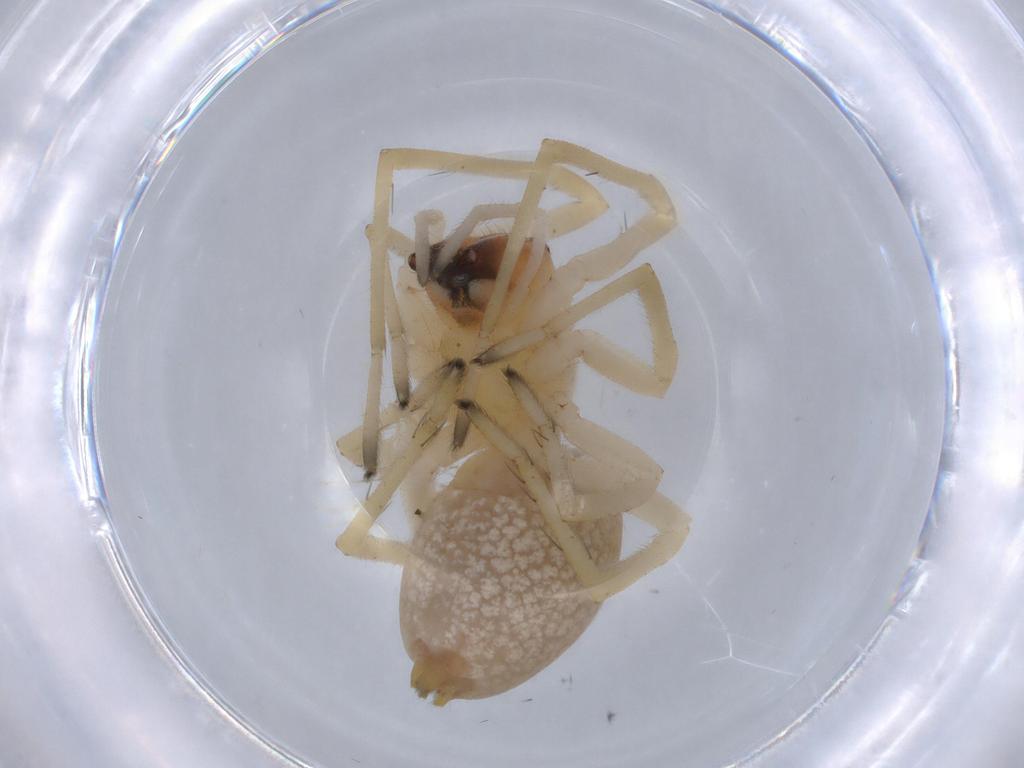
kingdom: Animalia
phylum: Arthropoda
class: Arachnida
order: Araneae
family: Cheiracanthiidae
